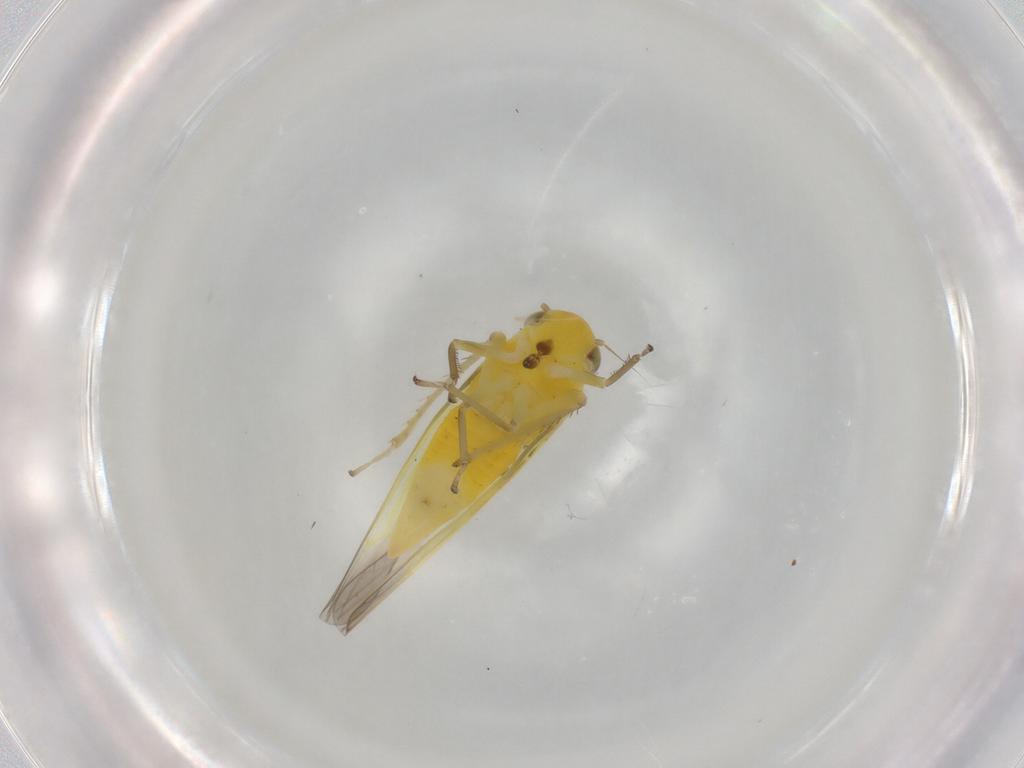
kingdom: Animalia
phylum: Arthropoda
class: Insecta
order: Hemiptera
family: Cicadellidae
